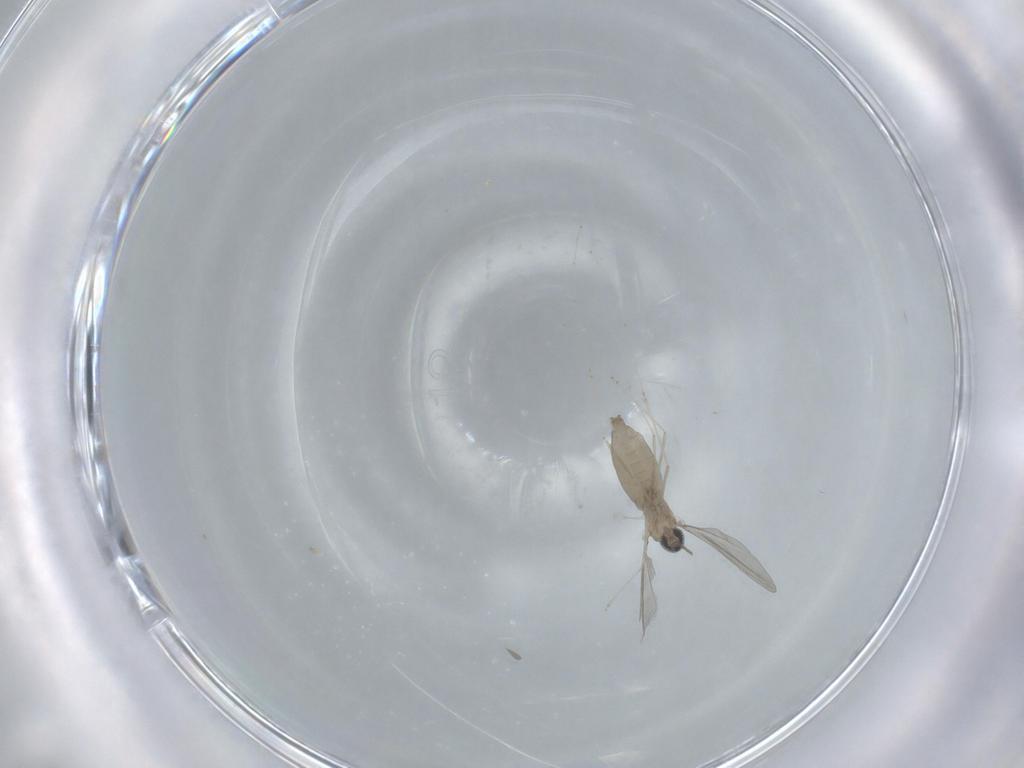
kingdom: Animalia
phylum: Arthropoda
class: Insecta
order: Diptera
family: Cecidomyiidae
